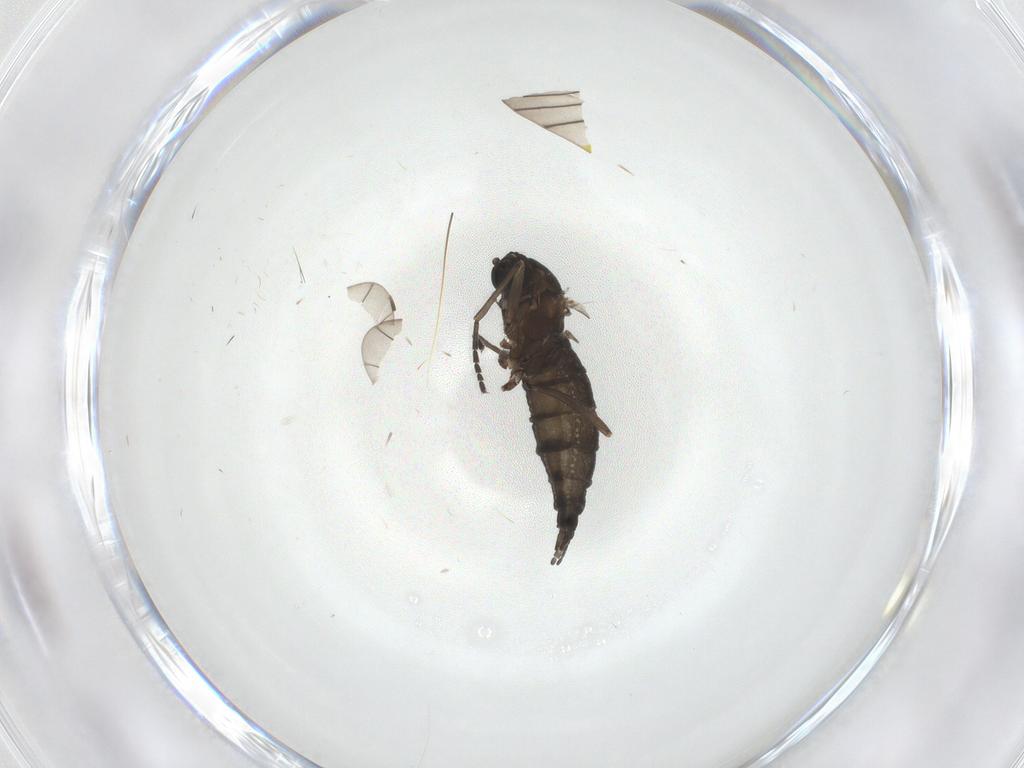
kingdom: Animalia
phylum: Arthropoda
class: Insecta
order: Diptera
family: Sciaridae
